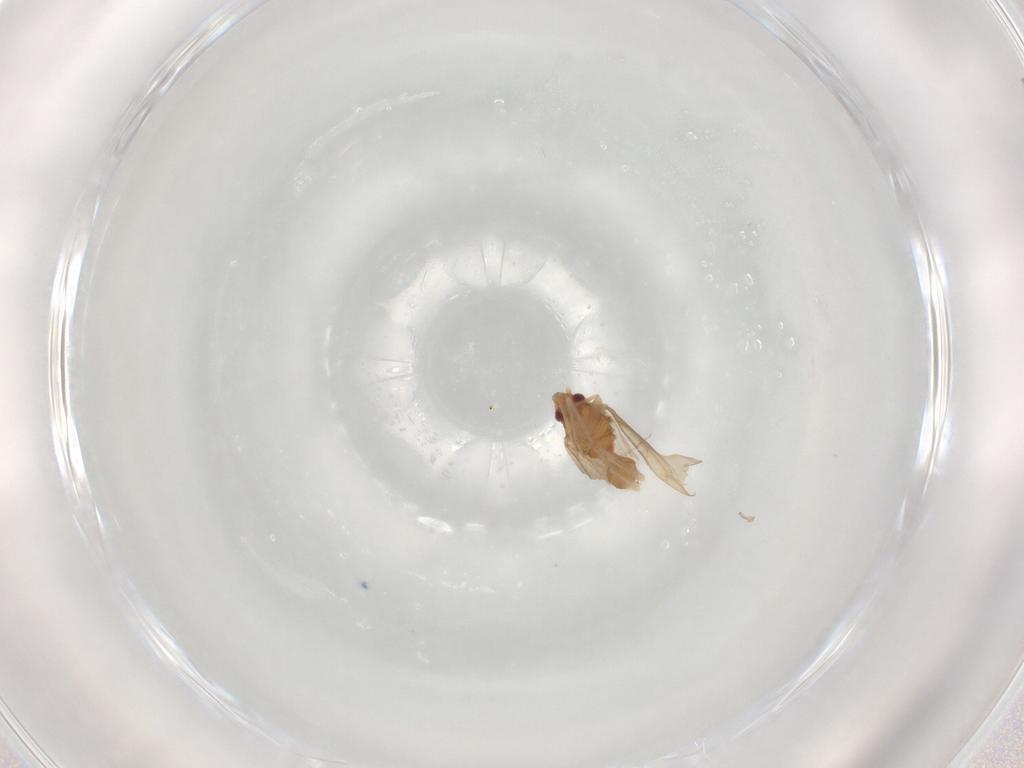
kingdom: Animalia
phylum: Arthropoda
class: Insecta
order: Hemiptera
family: Ceratocombidae
